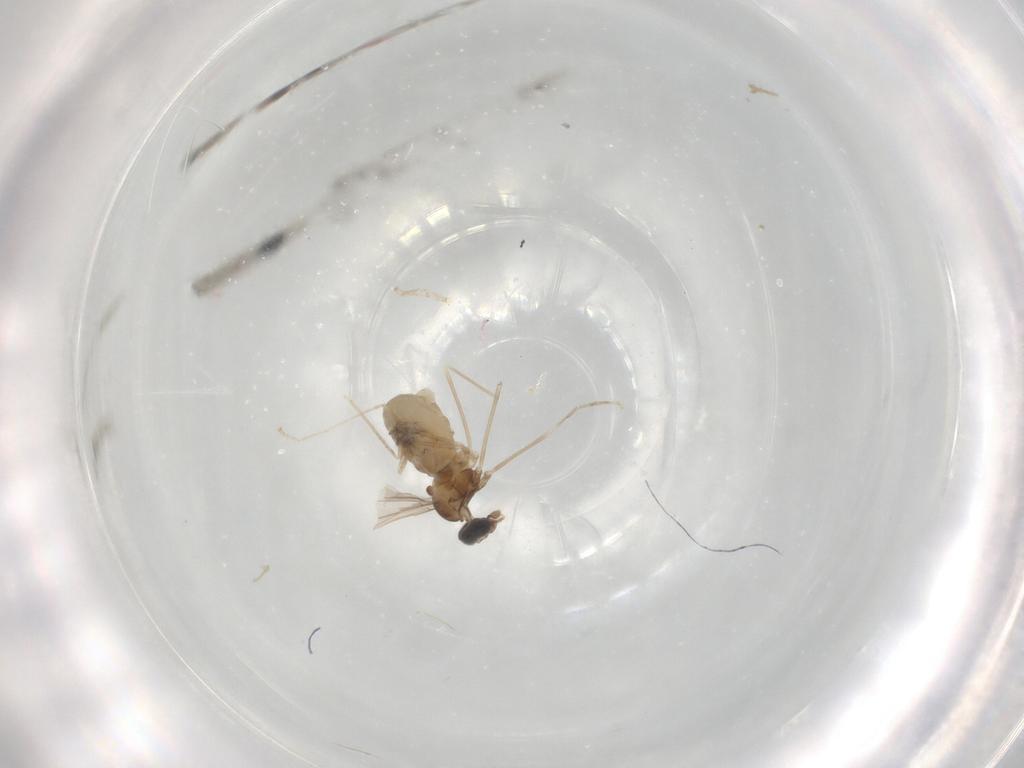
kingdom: Animalia
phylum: Arthropoda
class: Insecta
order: Diptera
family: Cecidomyiidae
